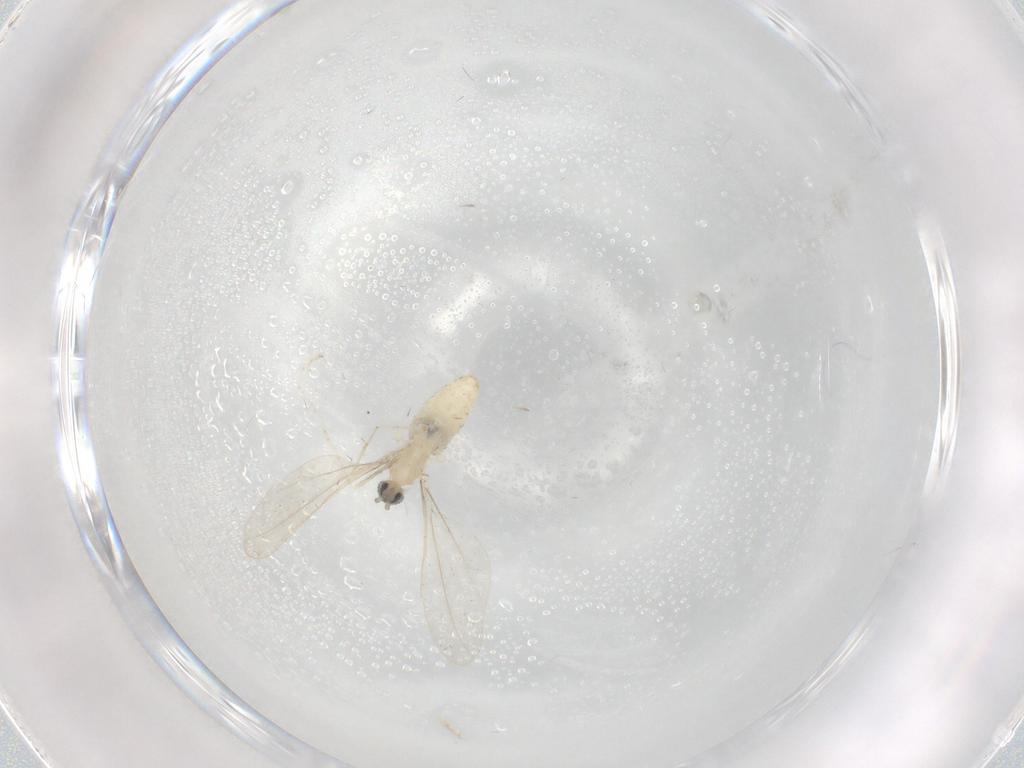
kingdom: Animalia
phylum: Arthropoda
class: Insecta
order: Diptera
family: Cecidomyiidae
